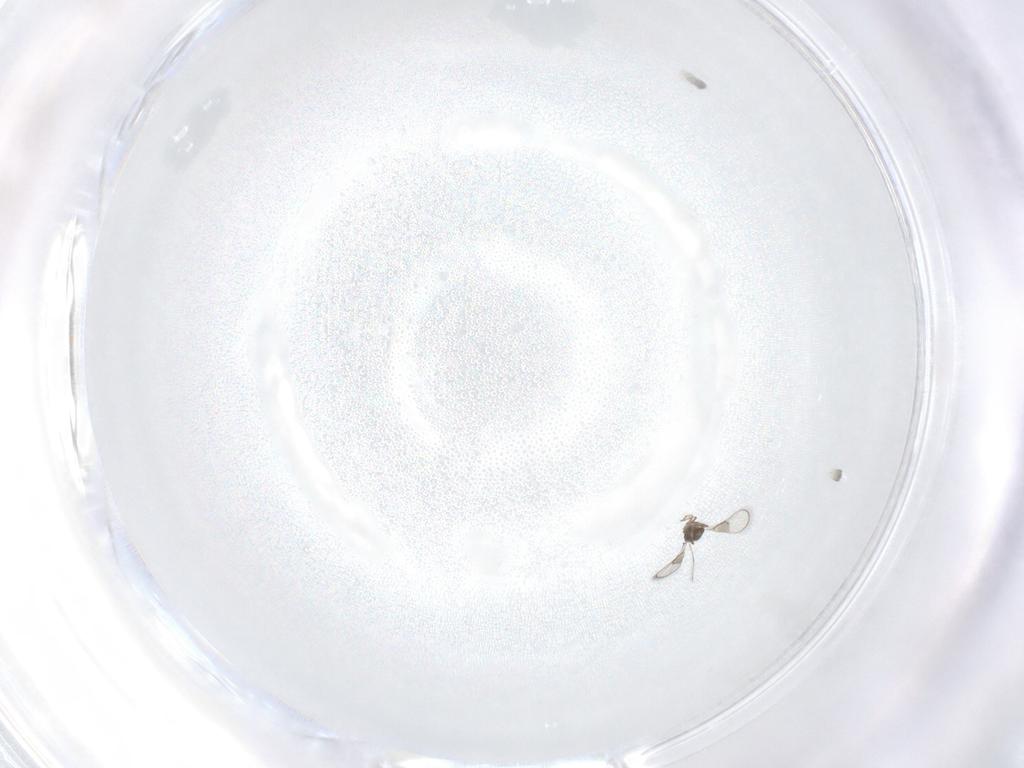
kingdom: Animalia
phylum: Arthropoda
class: Insecta
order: Hymenoptera
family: Trichogrammatidae
